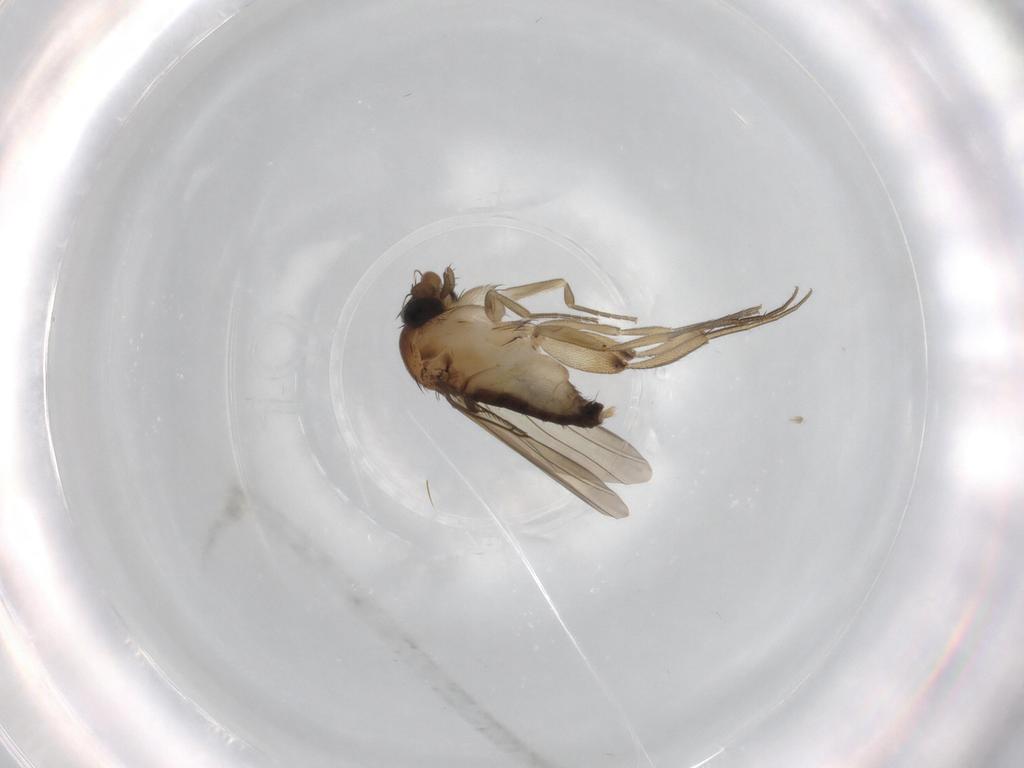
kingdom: Animalia
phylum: Arthropoda
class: Insecta
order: Diptera
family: Phoridae
